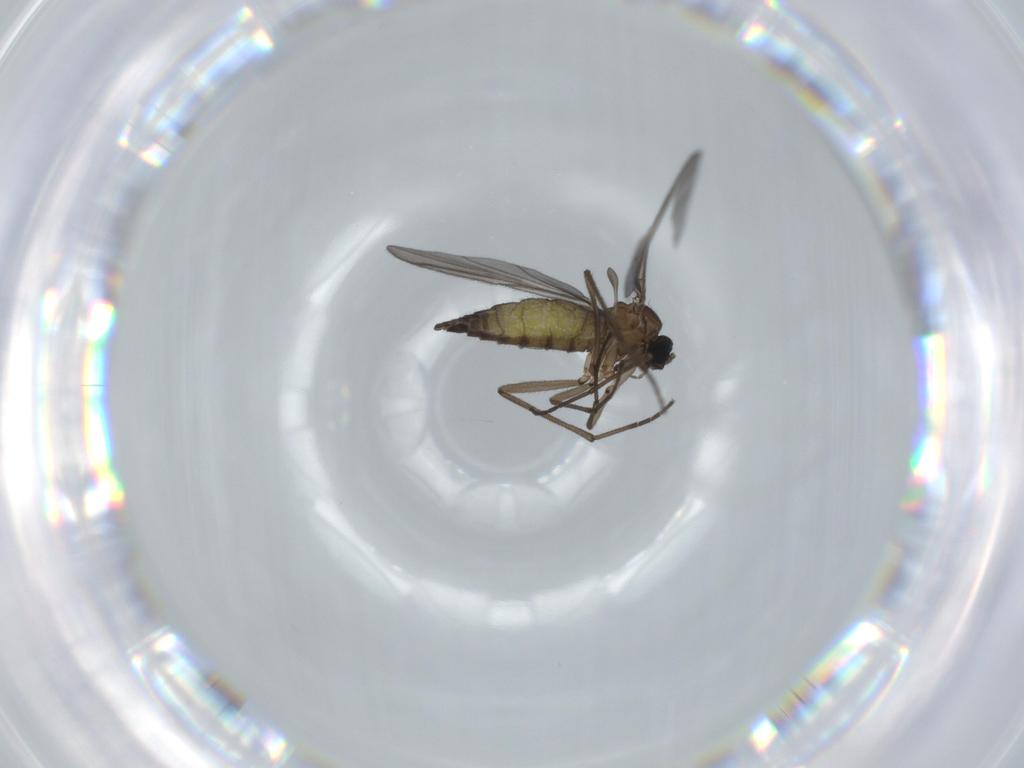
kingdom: Animalia
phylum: Arthropoda
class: Insecta
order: Diptera
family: Sciaridae
